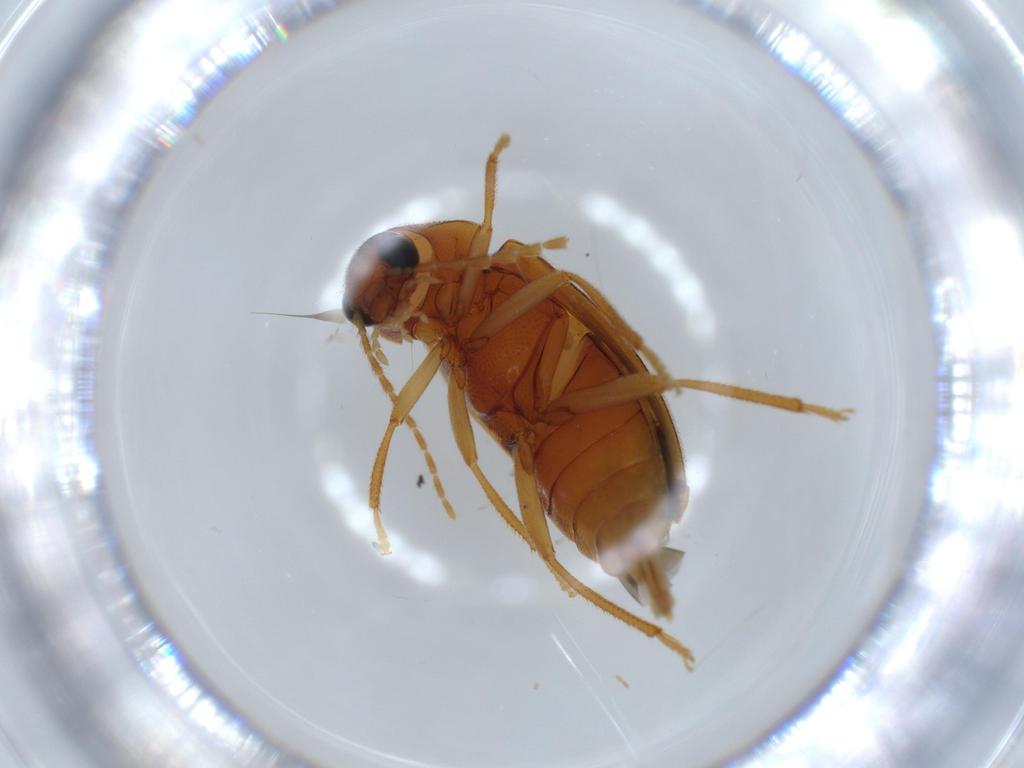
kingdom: Animalia
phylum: Arthropoda
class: Insecta
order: Coleoptera
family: Ptilodactylidae
